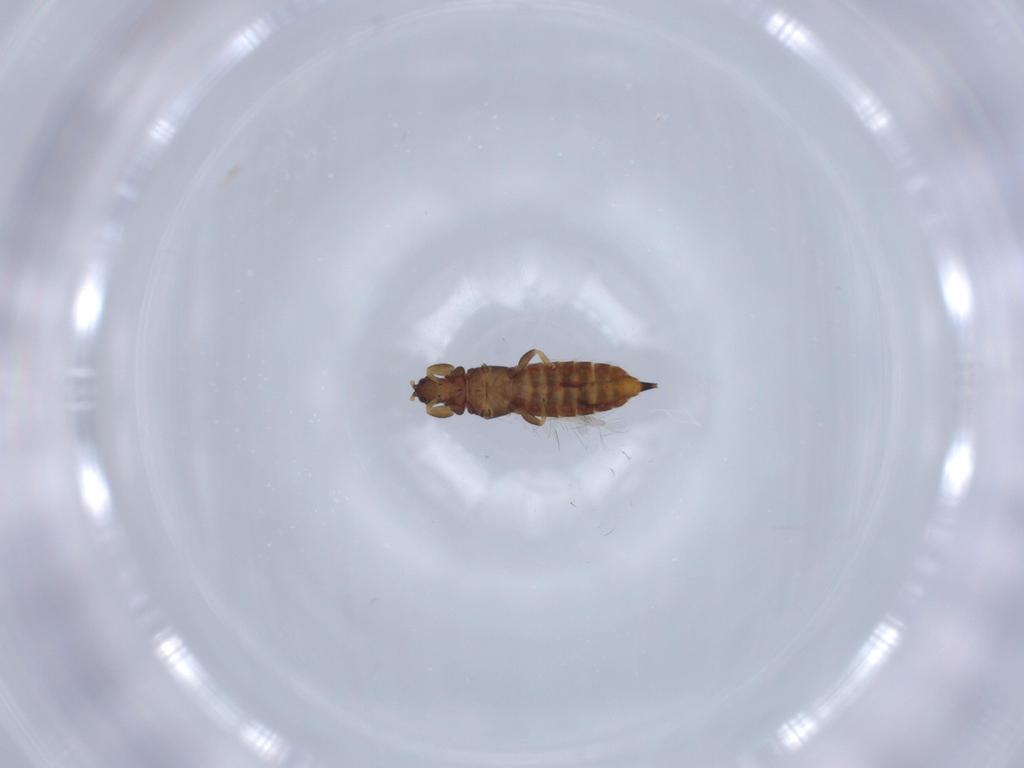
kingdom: Animalia
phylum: Arthropoda
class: Insecta
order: Thysanoptera
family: Phlaeothripidae
